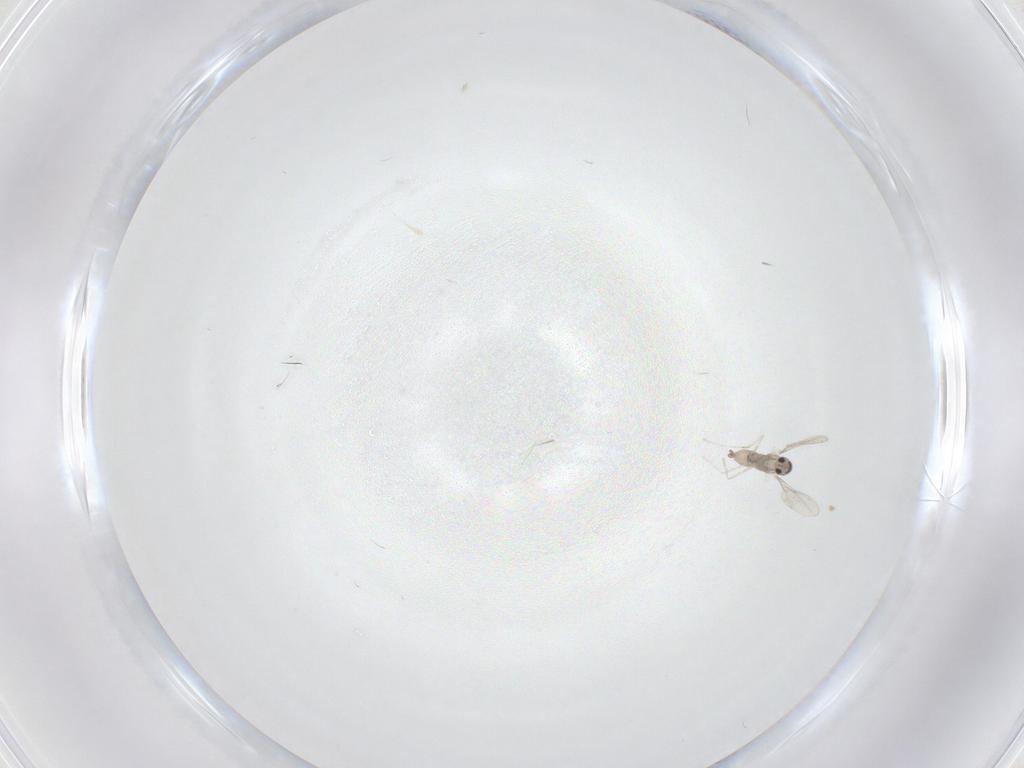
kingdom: Animalia
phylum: Arthropoda
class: Insecta
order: Diptera
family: Cecidomyiidae
